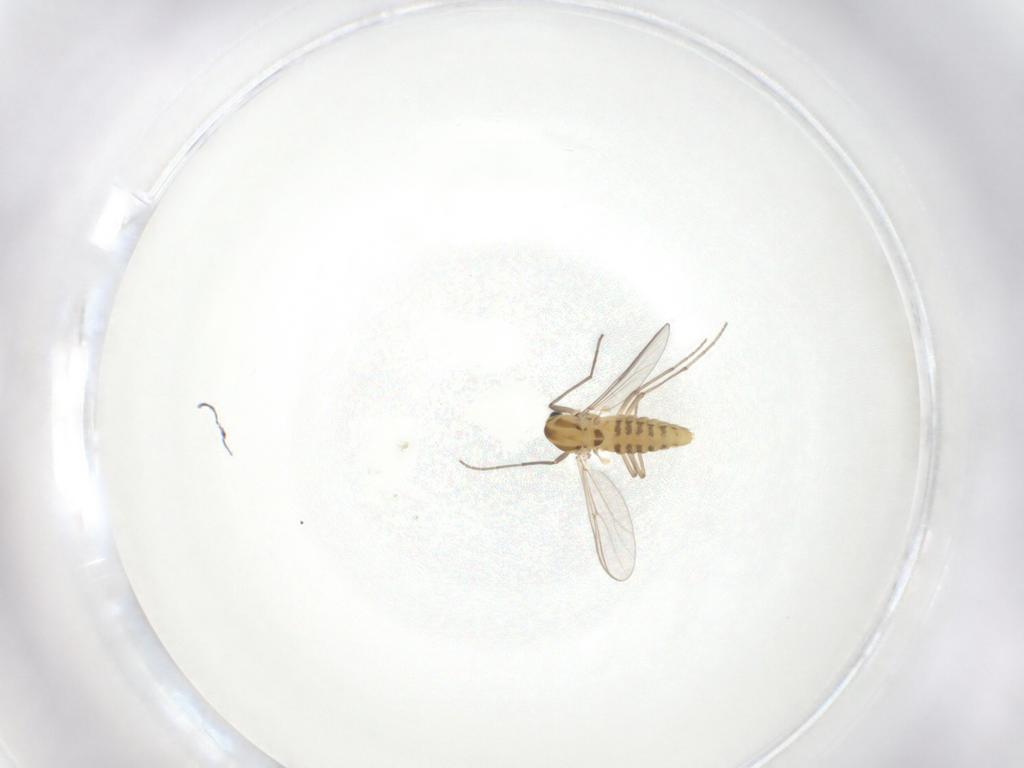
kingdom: Animalia
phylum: Arthropoda
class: Insecta
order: Diptera
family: Chironomidae
